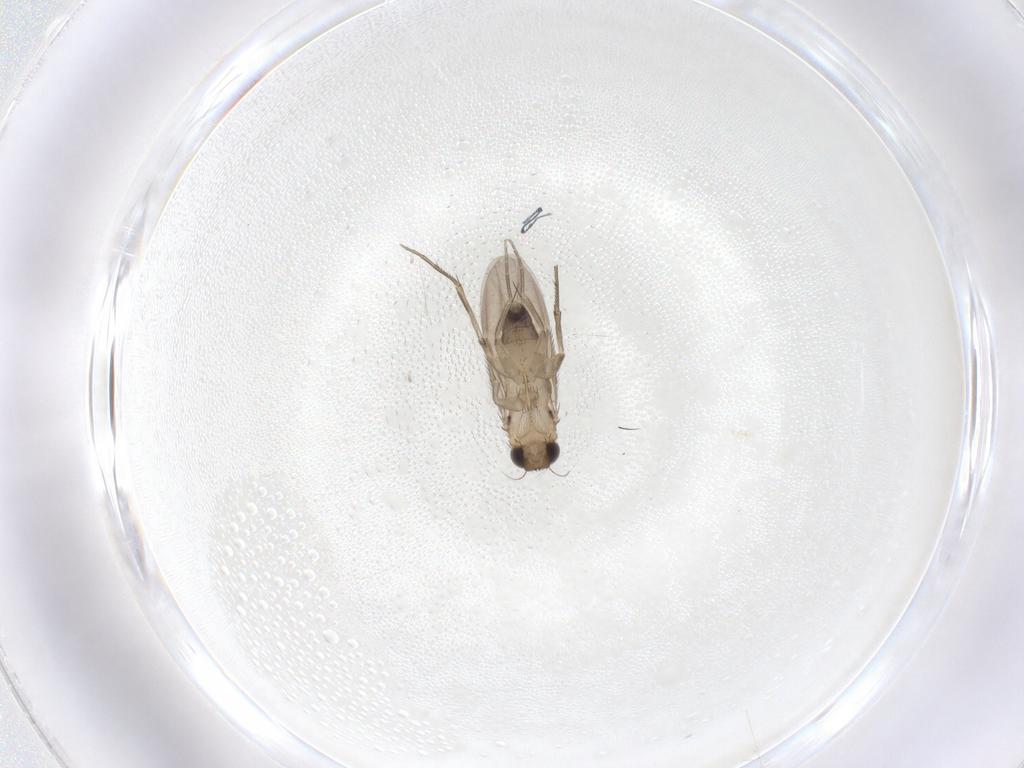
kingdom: Animalia
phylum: Arthropoda
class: Insecta
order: Diptera
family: Phoridae
